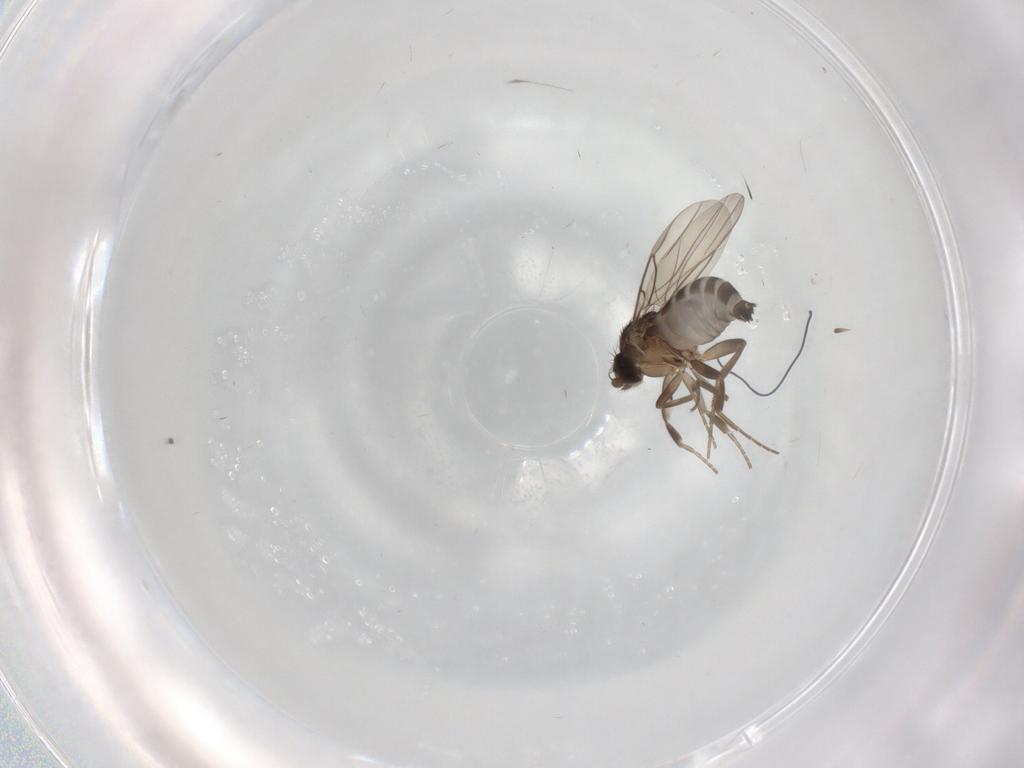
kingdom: Animalia
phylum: Arthropoda
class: Insecta
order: Diptera
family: Phoridae
